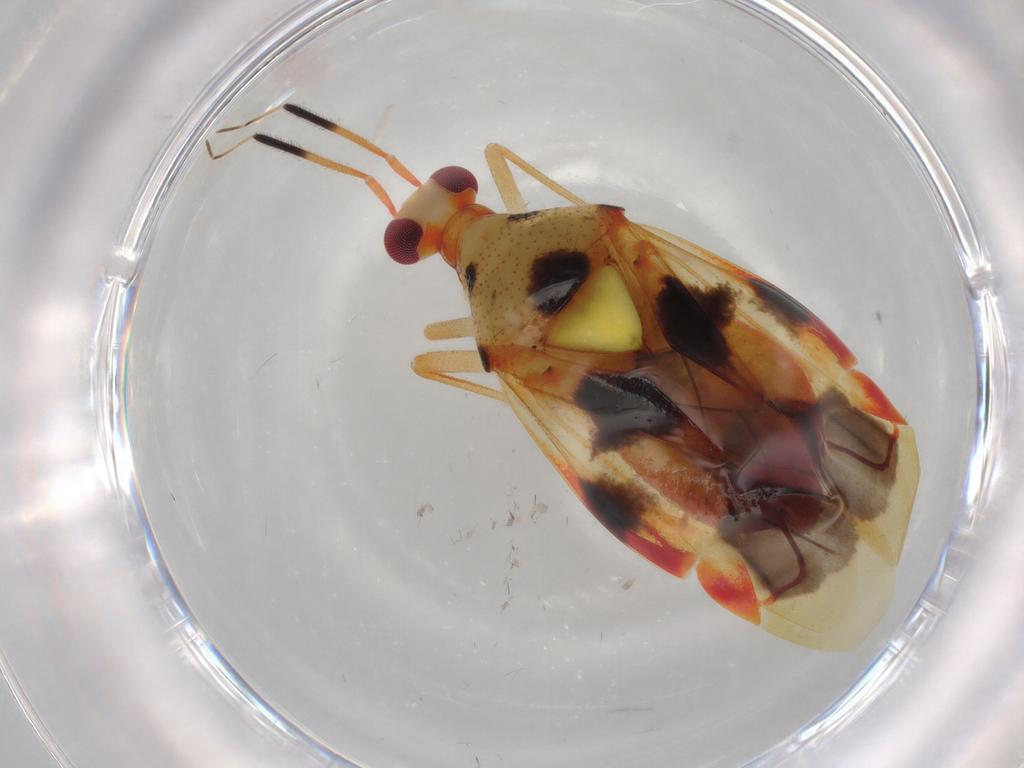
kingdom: Animalia
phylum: Arthropoda
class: Insecta
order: Hemiptera
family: Miridae
